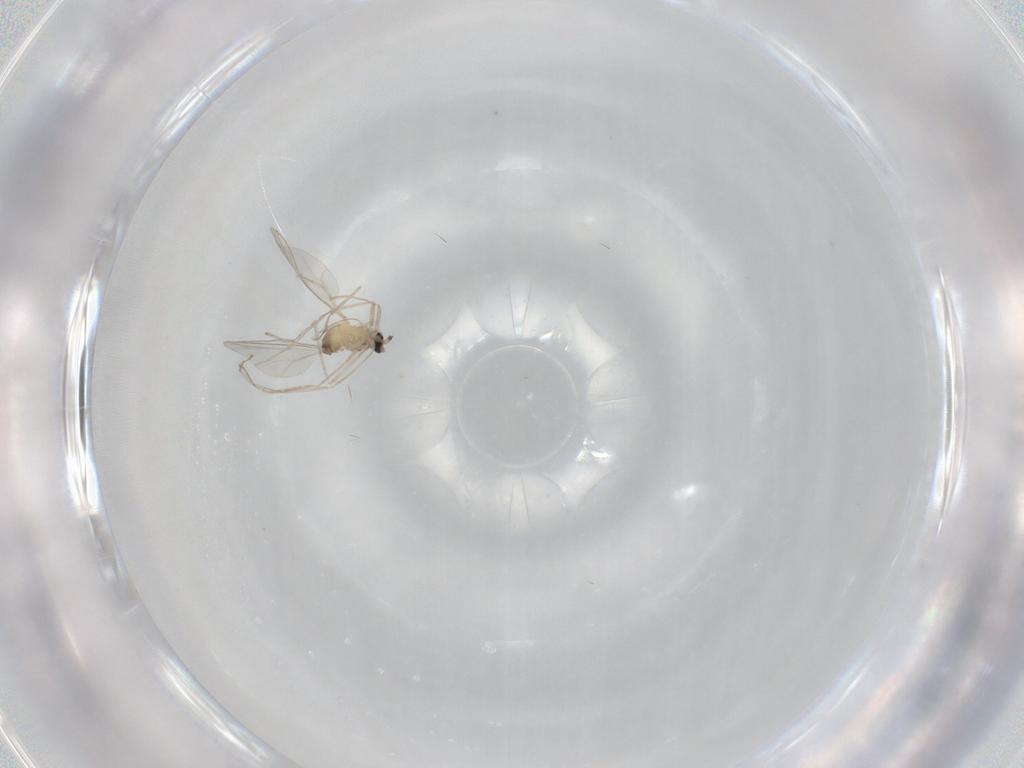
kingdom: Animalia
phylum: Arthropoda
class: Insecta
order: Diptera
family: Cecidomyiidae
